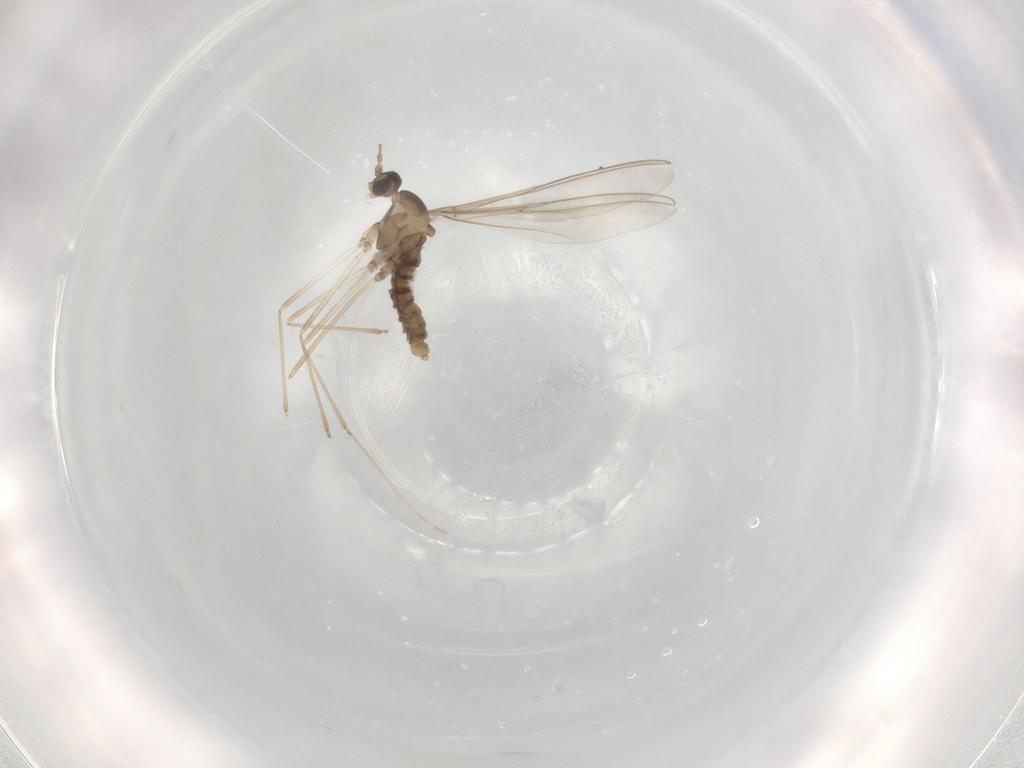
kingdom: Animalia
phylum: Arthropoda
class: Insecta
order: Diptera
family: Cecidomyiidae
